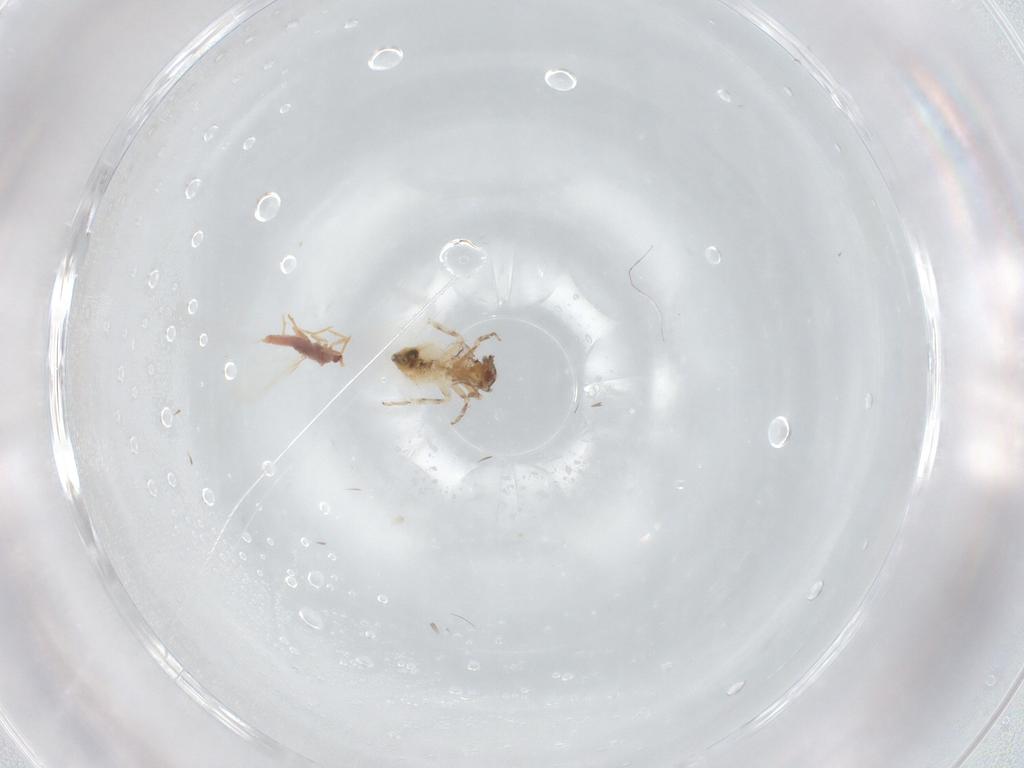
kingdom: Animalia
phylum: Arthropoda
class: Insecta
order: Psocodea
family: Lepidopsocidae
